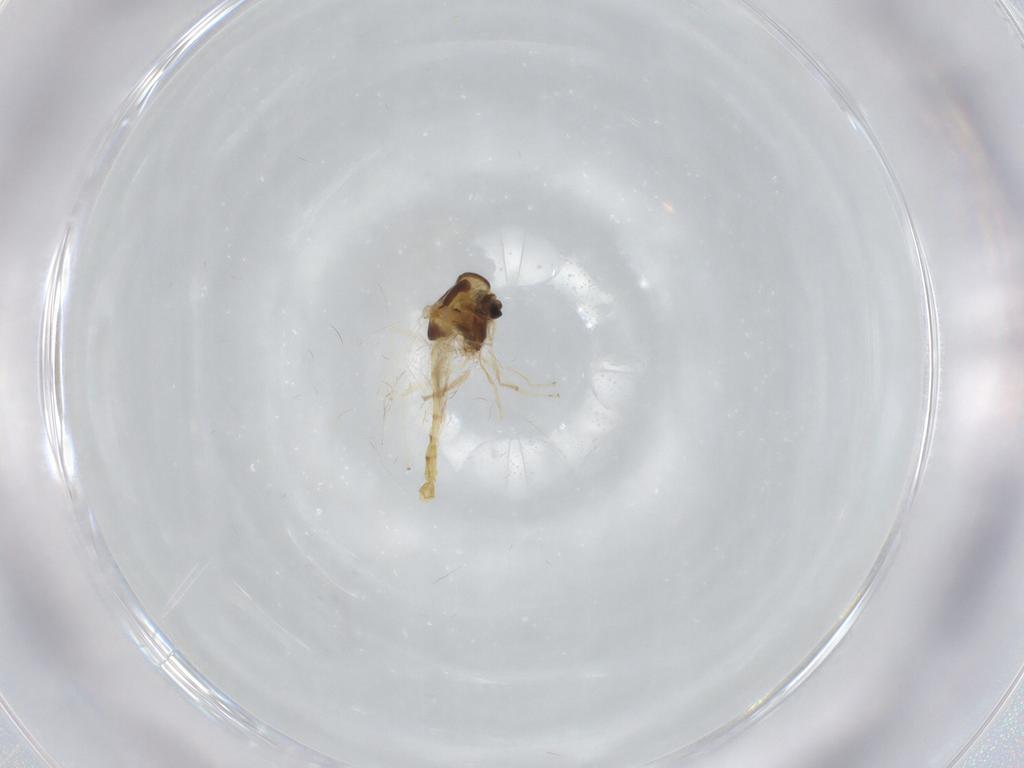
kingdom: Animalia
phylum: Arthropoda
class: Insecta
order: Diptera
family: Chironomidae
